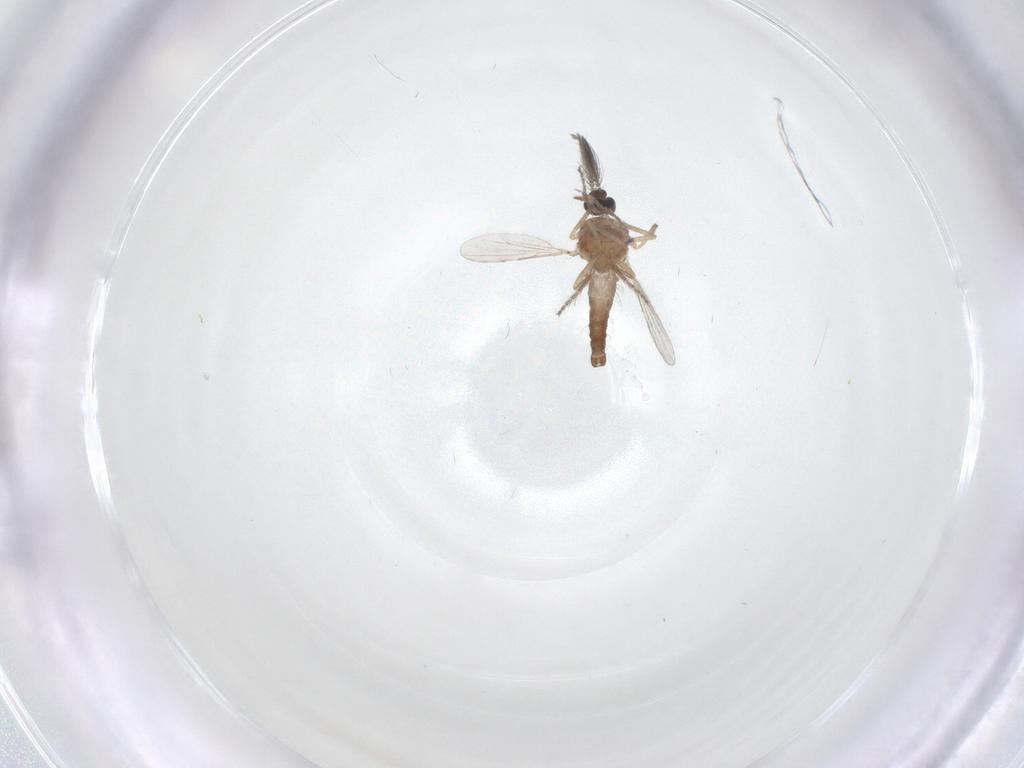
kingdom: Animalia
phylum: Arthropoda
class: Insecta
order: Diptera
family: Ceratopogonidae
